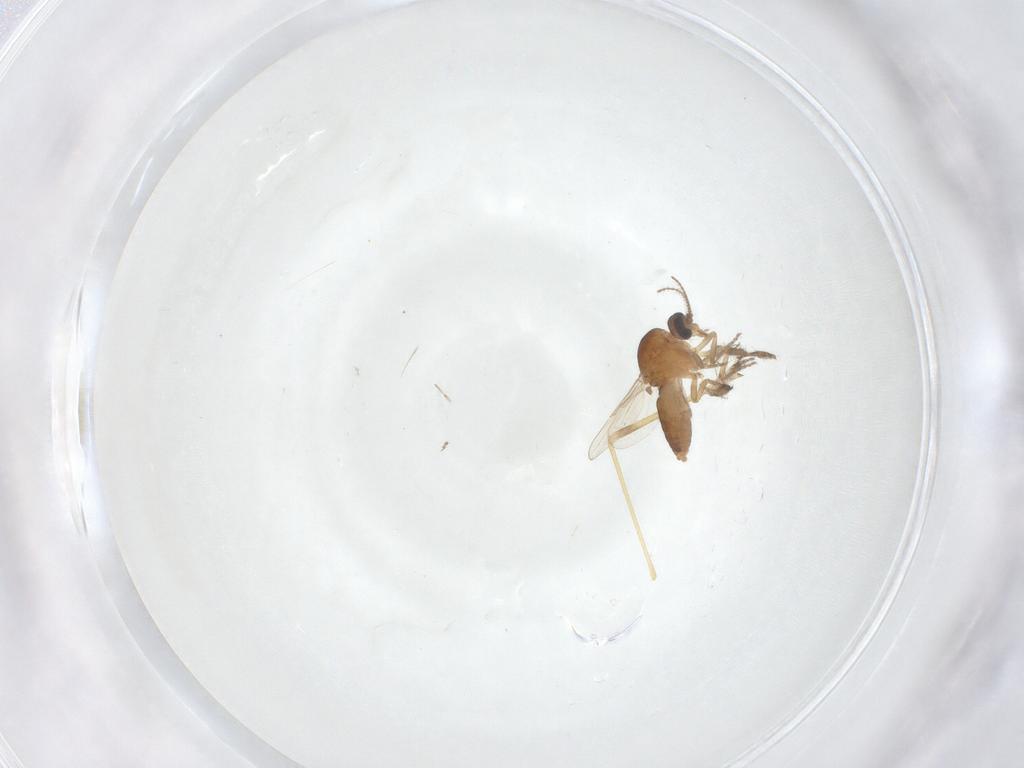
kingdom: Animalia
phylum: Arthropoda
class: Insecta
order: Diptera
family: Ceratopogonidae
